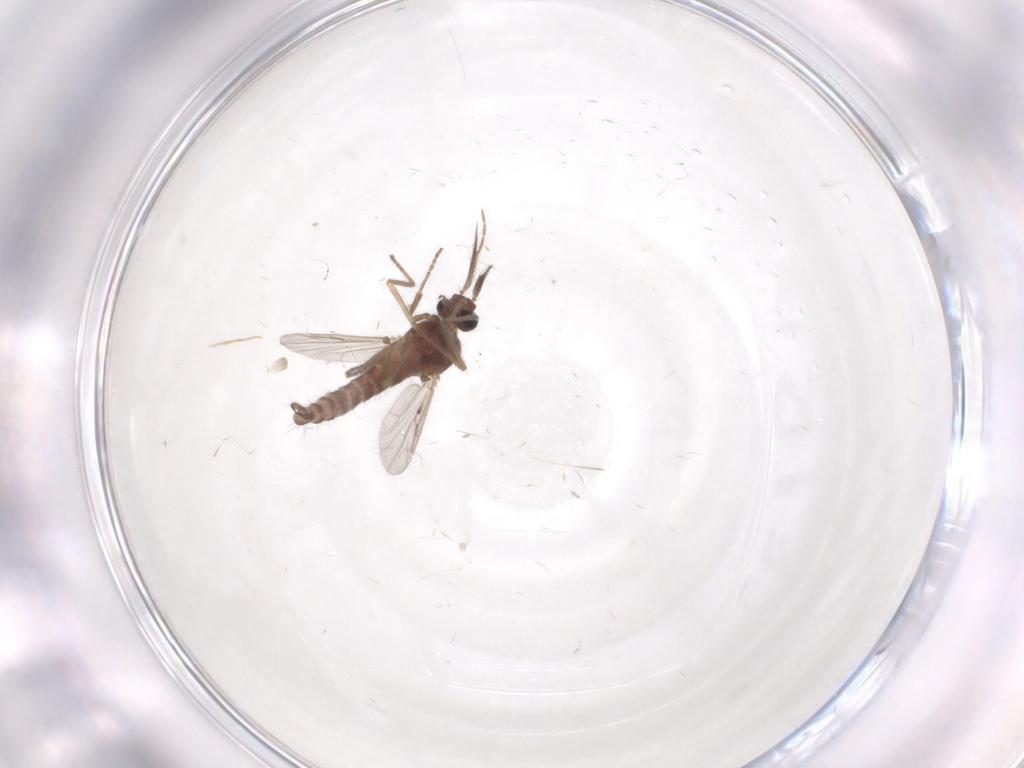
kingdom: Animalia
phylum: Arthropoda
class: Insecta
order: Diptera
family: Ceratopogonidae
